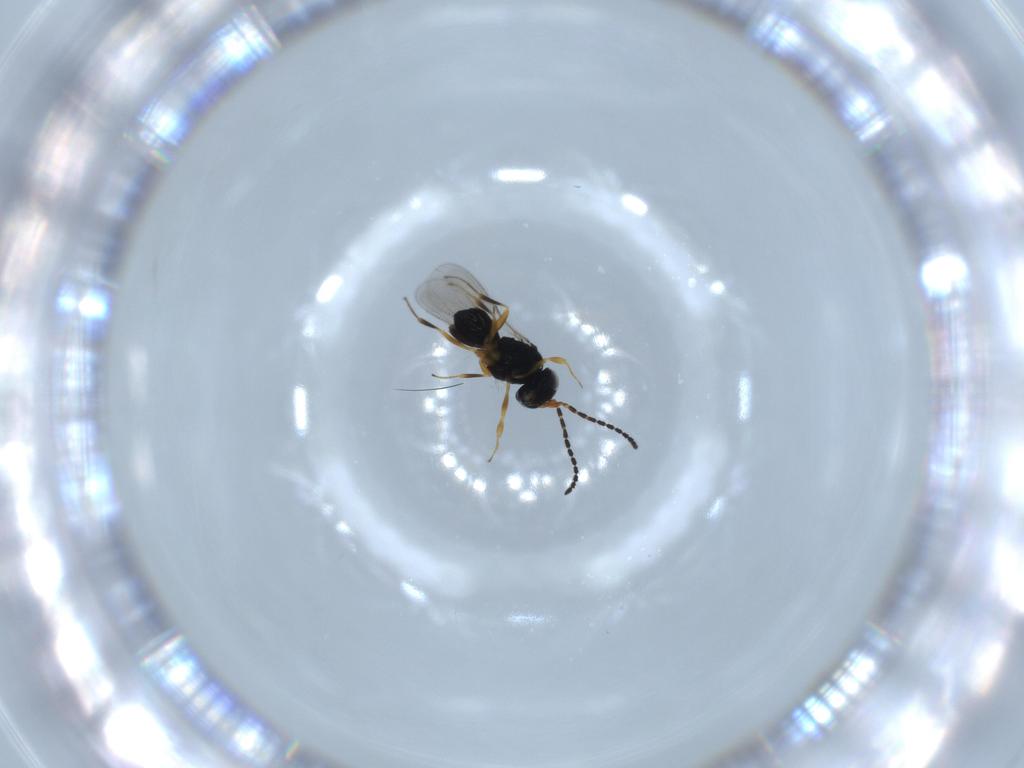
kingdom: Animalia
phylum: Arthropoda
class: Insecta
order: Hymenoptera
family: Scelionidae
